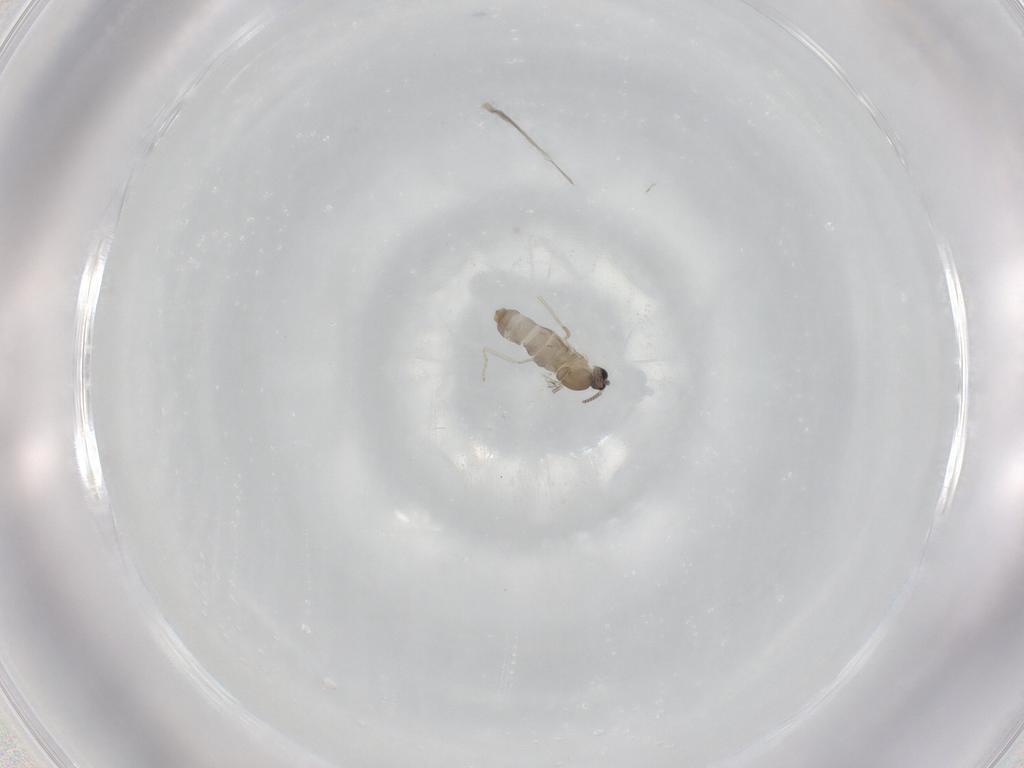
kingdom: Animalia
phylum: Arthropoda
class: Insecta
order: Diptera
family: Cecidomyiidae
